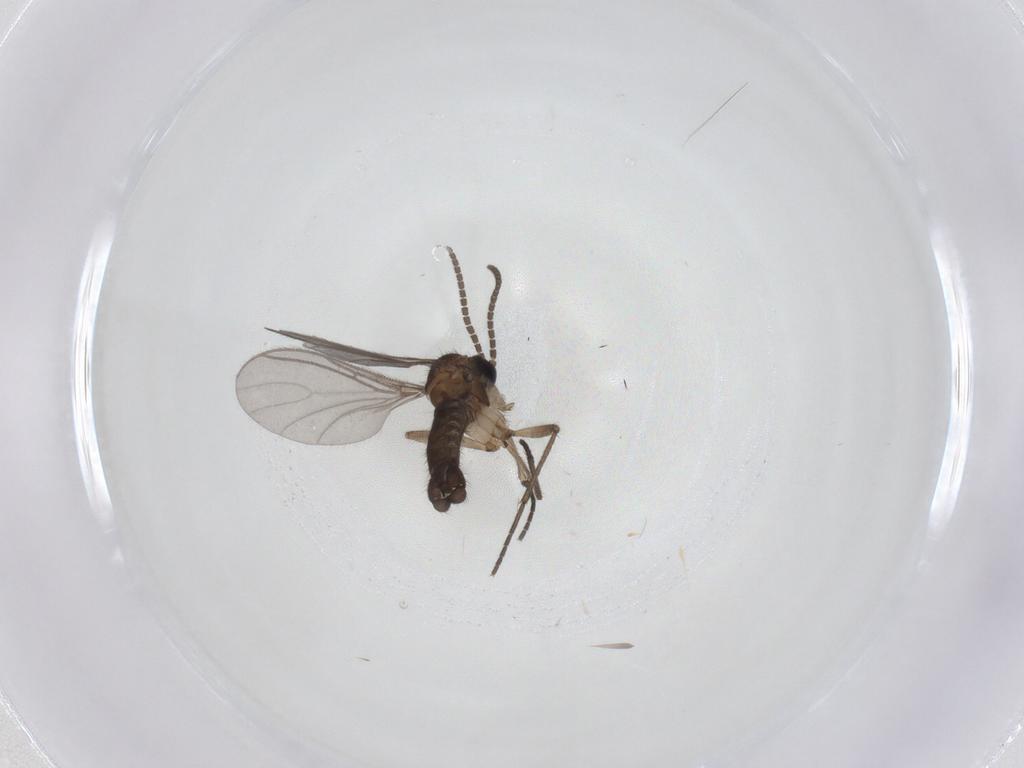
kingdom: Animalia
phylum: Arthropoda
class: Insecta
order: Diptera
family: Sciaridae
